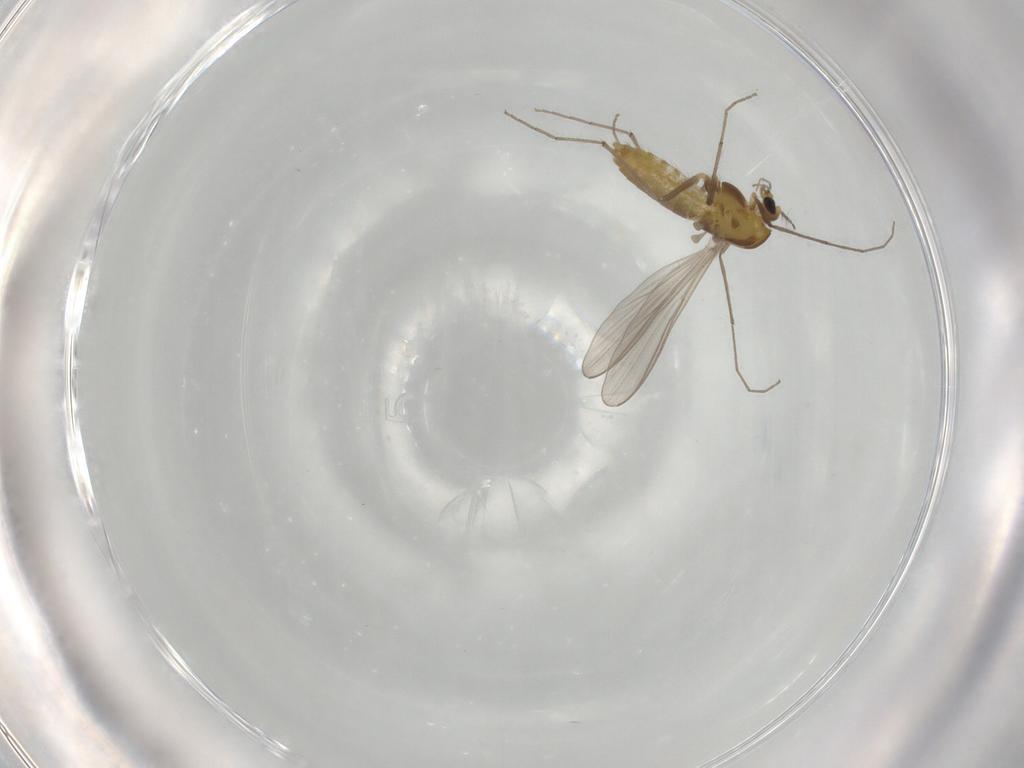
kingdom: Animalia
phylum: Arthropoda
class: Insecta
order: Diptera
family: Chironomidae
